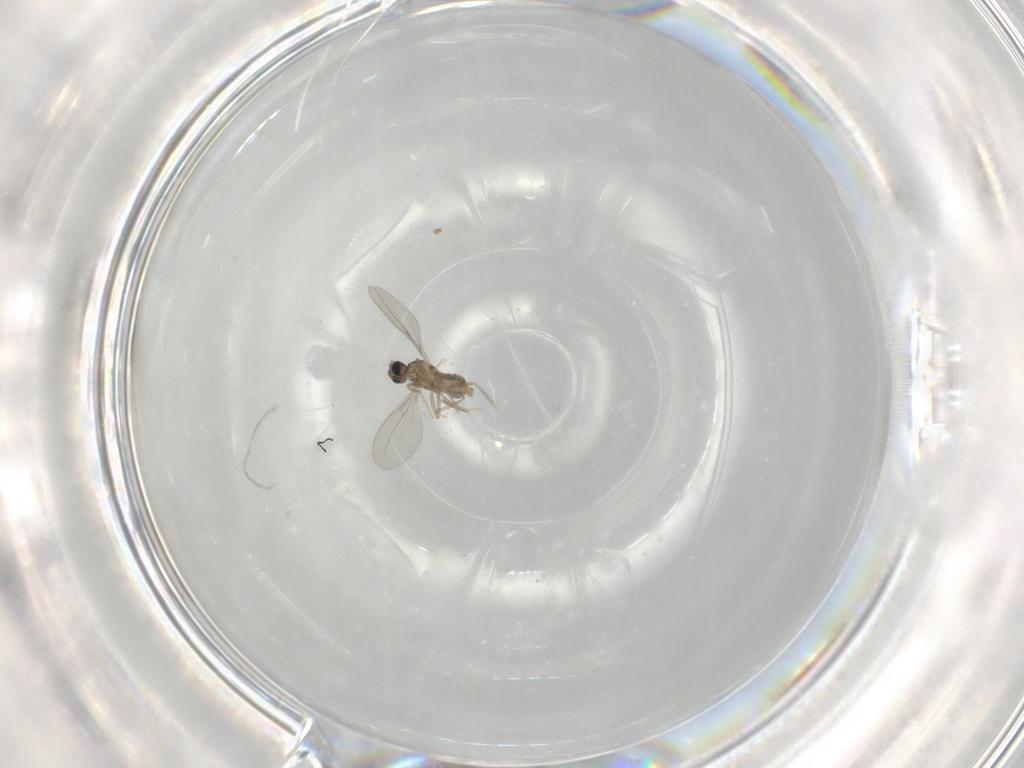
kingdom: Animalia
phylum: Arthropoda
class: Insecta
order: Diptera
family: Cecidomyiidae
